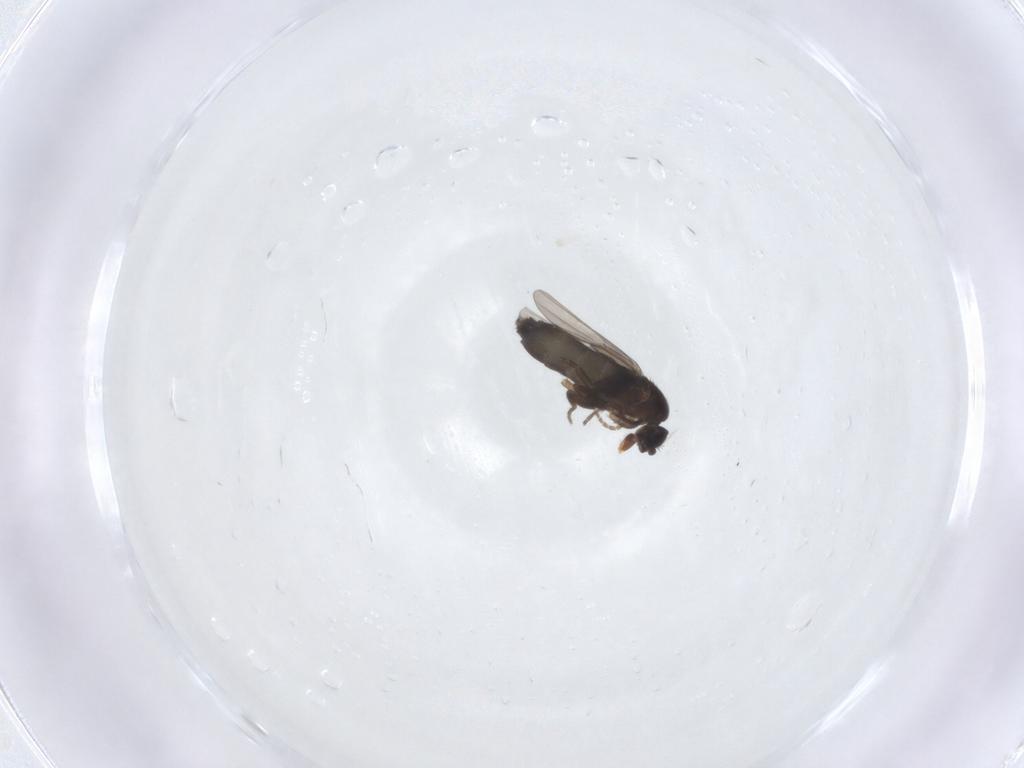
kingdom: Animalia
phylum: Arthropoda
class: Insecta
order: Diptera
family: Phoridae
